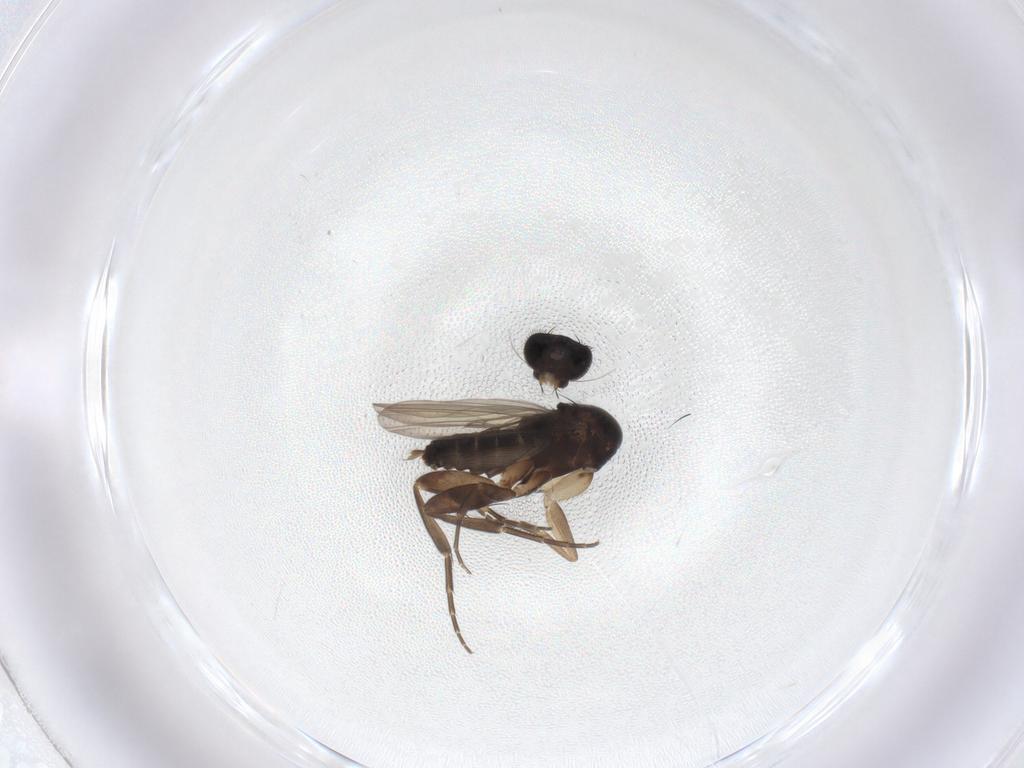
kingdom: Animalia
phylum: Arthropoda
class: Insecta
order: Diptera
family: Phoridae
